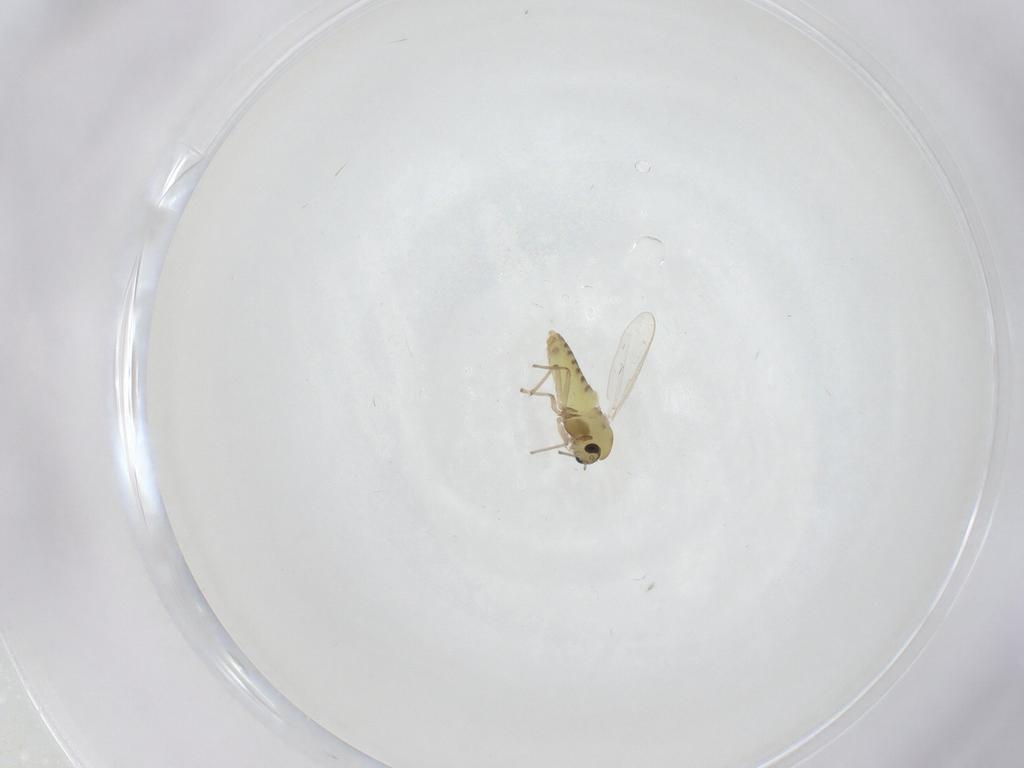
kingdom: Animalia
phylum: Arthropoda
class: Insecta
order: Diptera
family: Chironomidae
